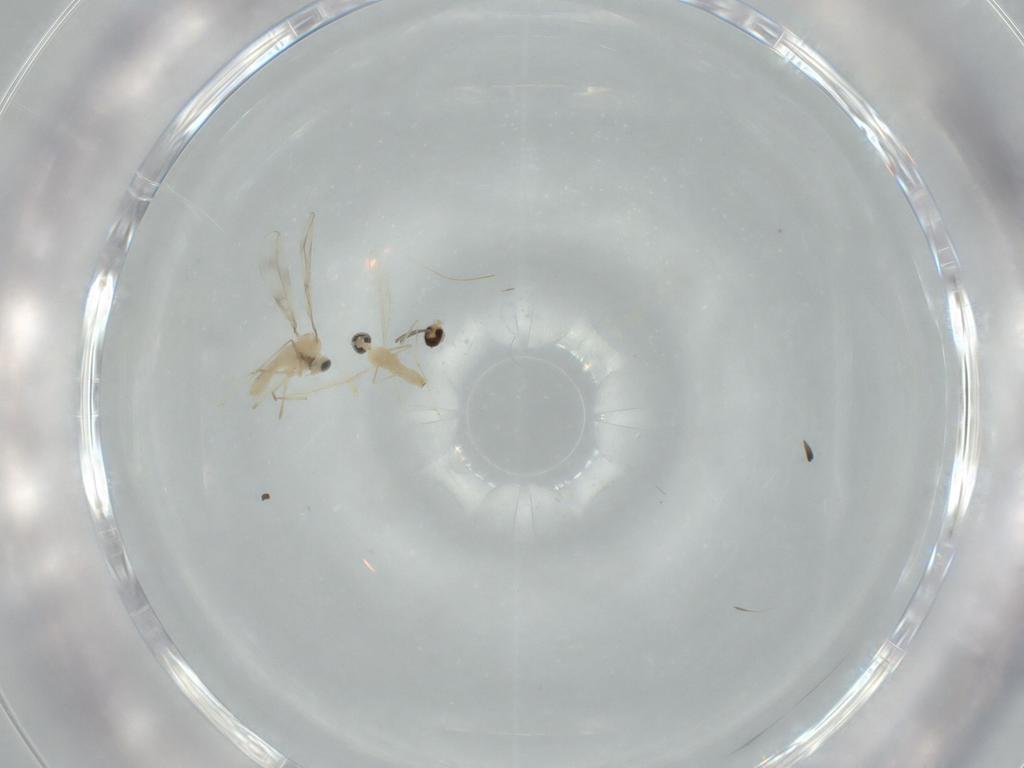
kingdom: Animalia
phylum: Arthropoda
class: Insecta
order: Diptera
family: Cecidomyiidae
